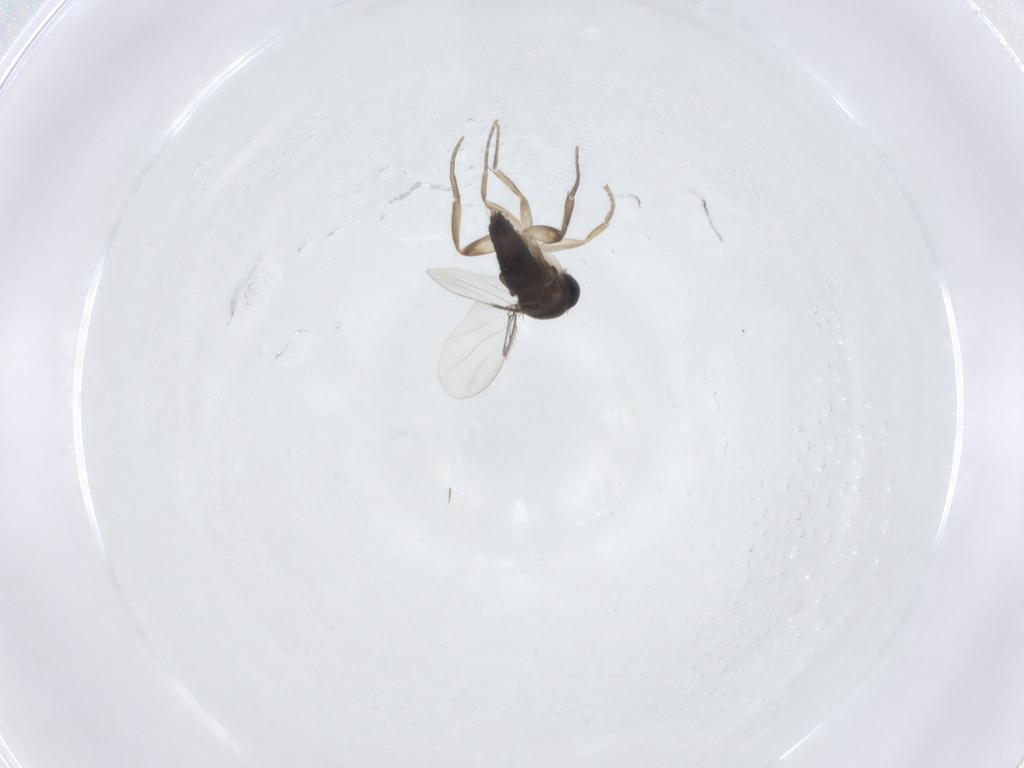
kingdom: Animalia
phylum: Arthropoda
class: Insecta
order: Diptera
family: Phoridae
